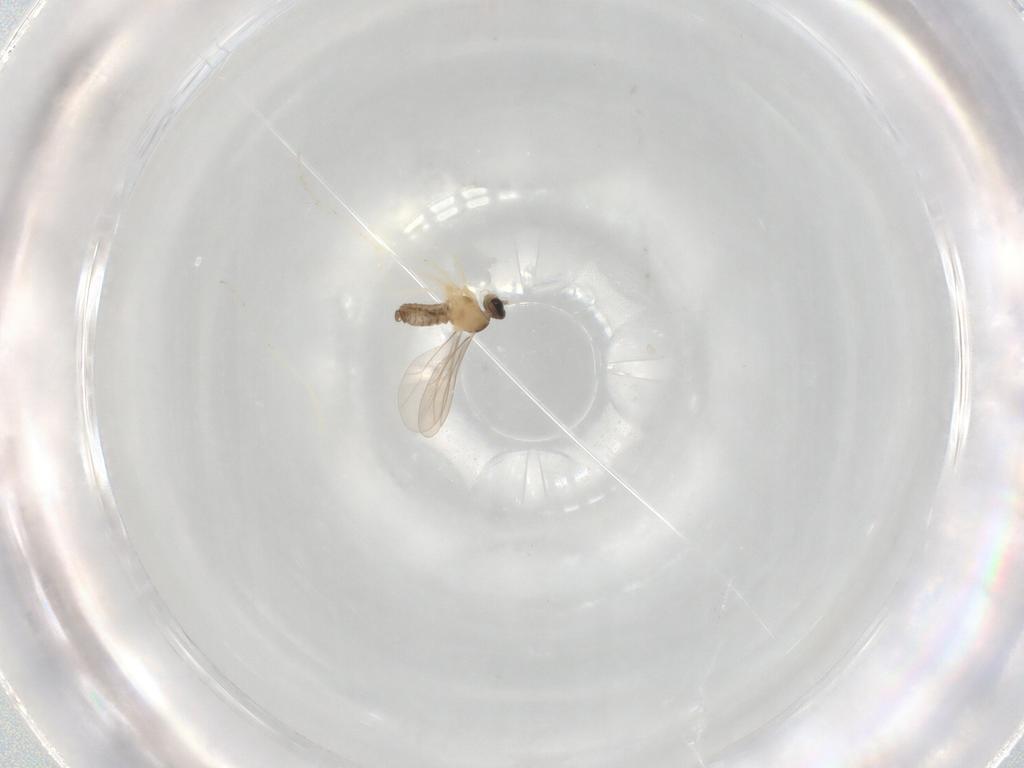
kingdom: Animalia
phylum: Arthropoda
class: Insecta
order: Diptera
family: Cecidomyiidae
